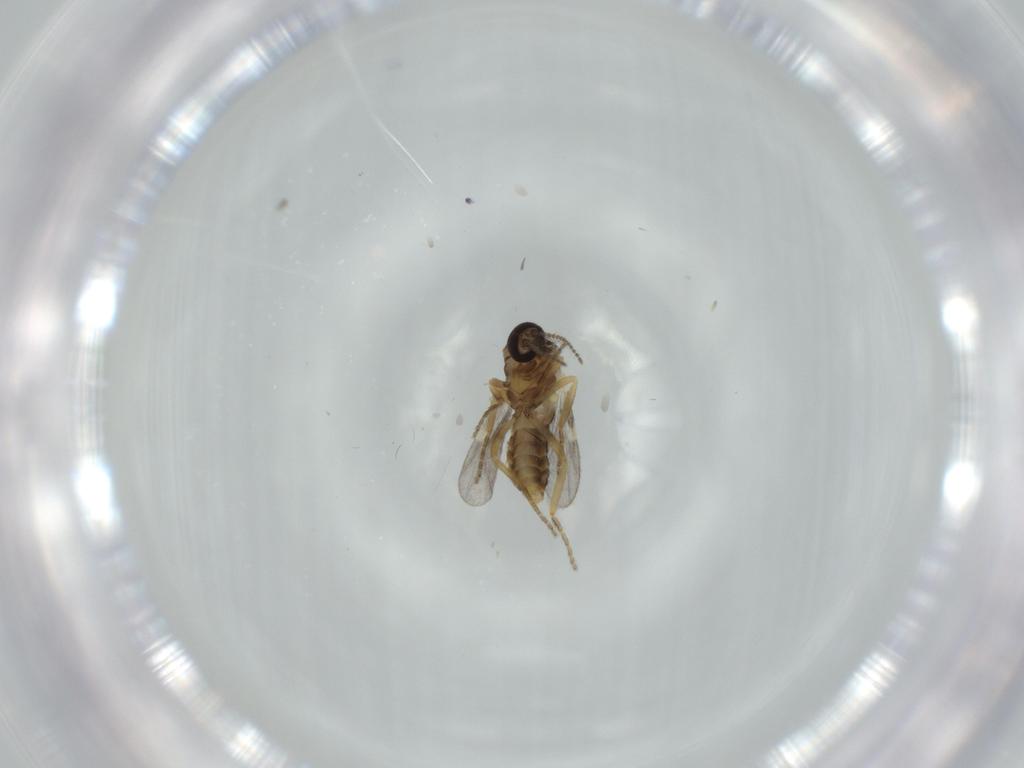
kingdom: Animalia
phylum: Arthropoda
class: Insecta
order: Diptera
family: Ceratopogonidae
